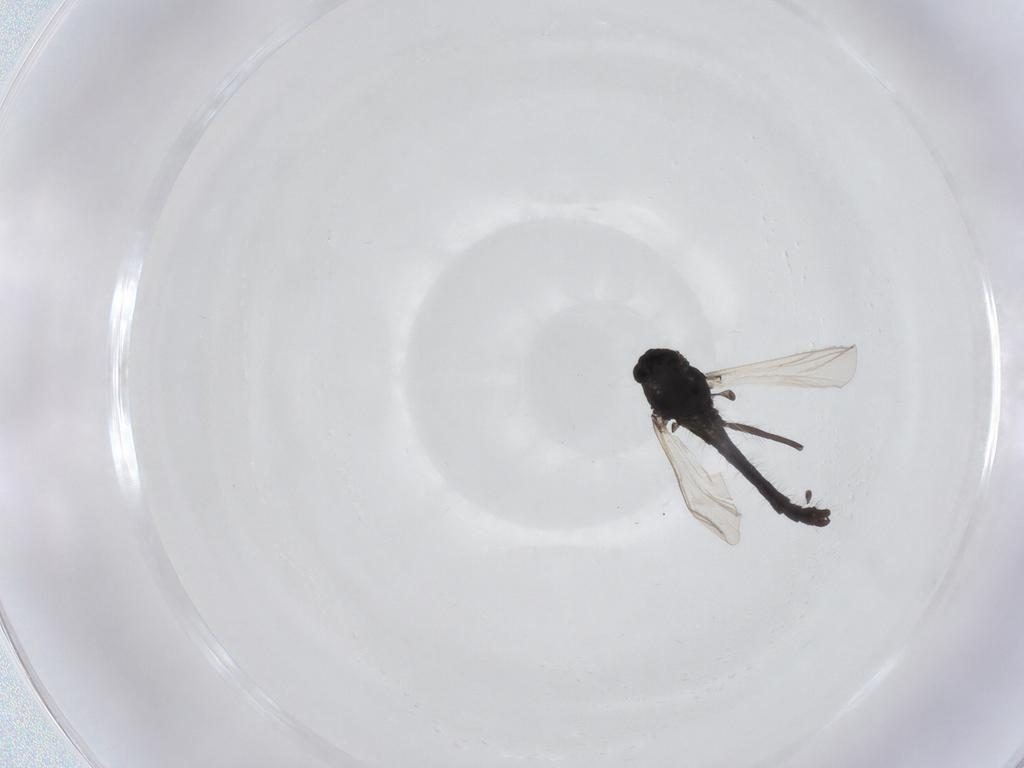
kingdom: Animalia
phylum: Arthropoda
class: Insecta
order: Diptera
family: Chironomidae
